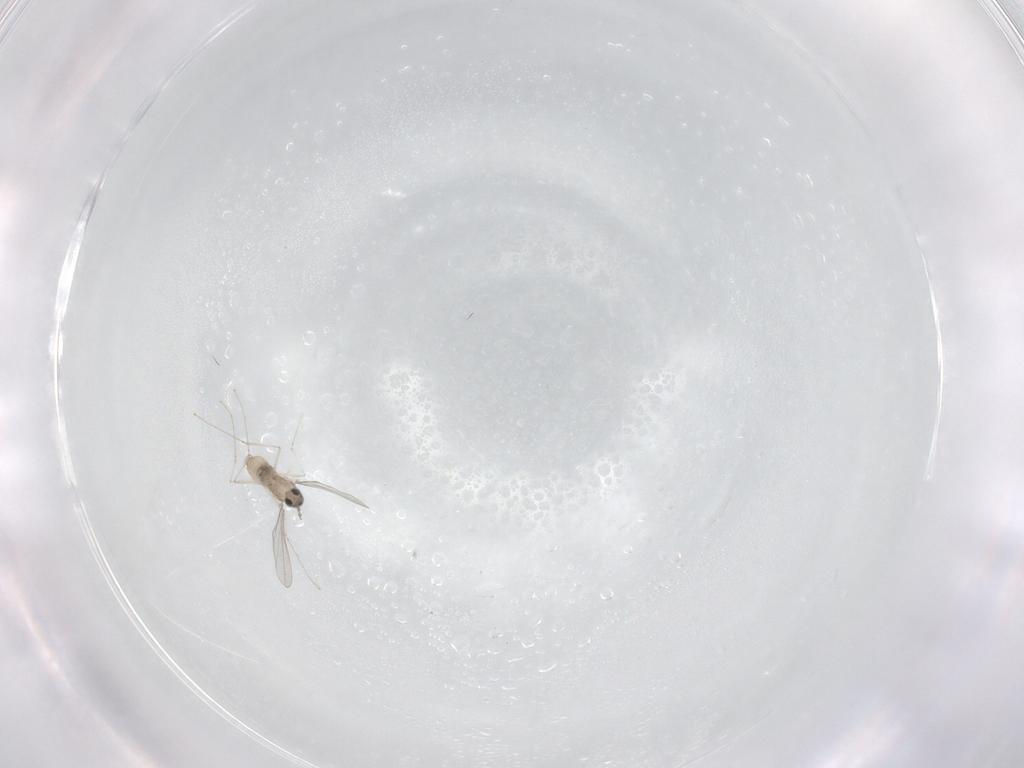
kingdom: Animalia
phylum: Arthropoda
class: Insecta
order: Diptera
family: Cecidomyiidae
